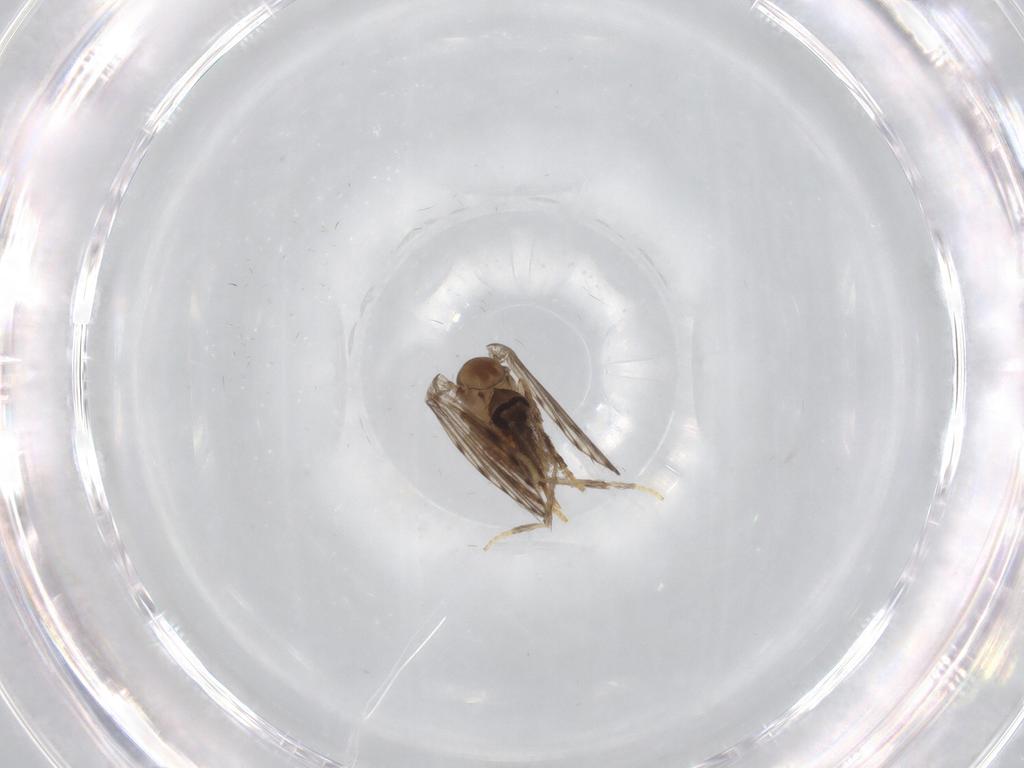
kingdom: Animalia
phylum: Arthropoda
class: Insecta
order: Diptera
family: Psychodidae
